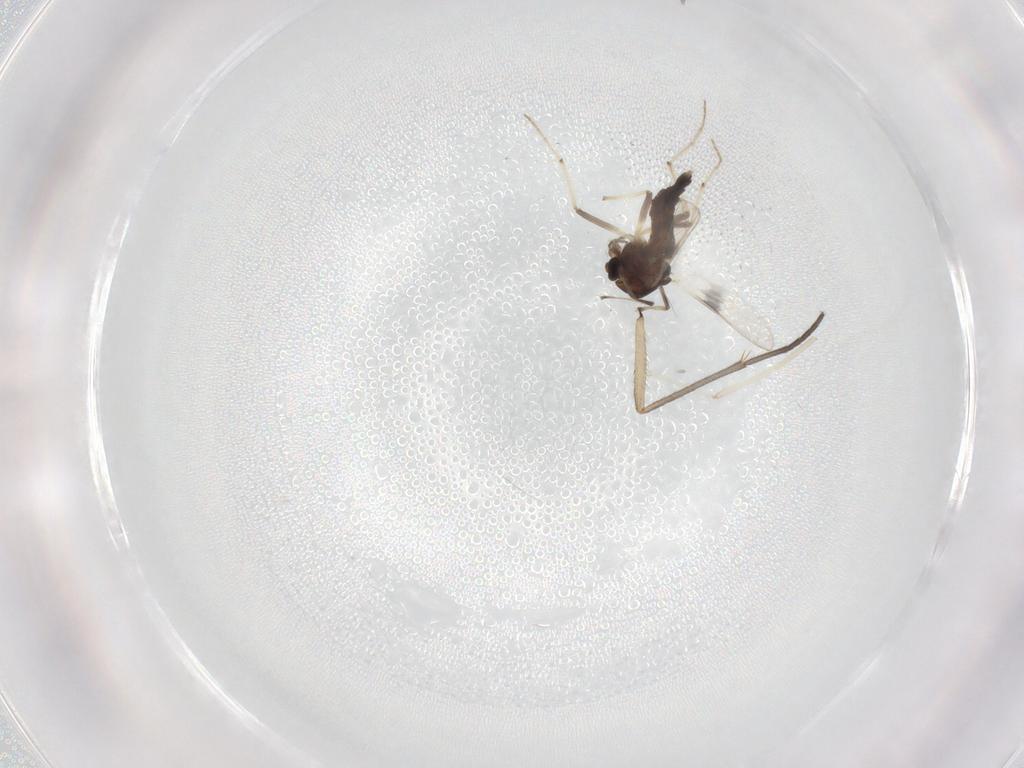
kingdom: Animalia
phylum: Arthropoda
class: Insecta
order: Diptera
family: Chironomidae
